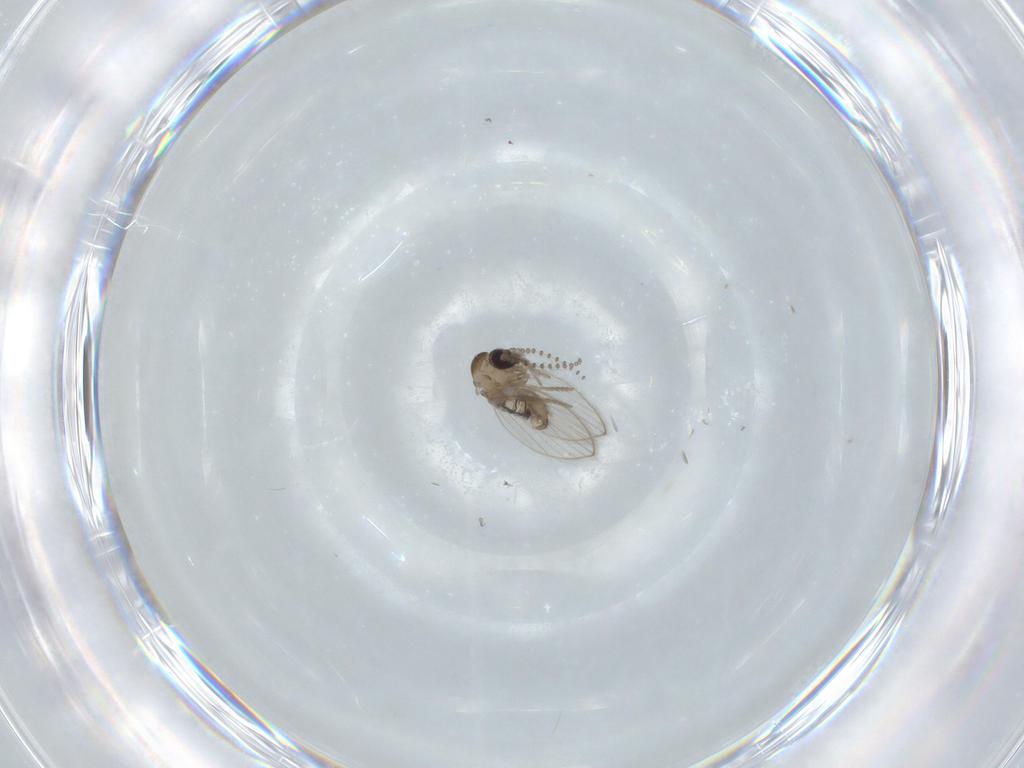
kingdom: Animalia
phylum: Arthropoda
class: Insecta
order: Diptera
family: Psychodidae
